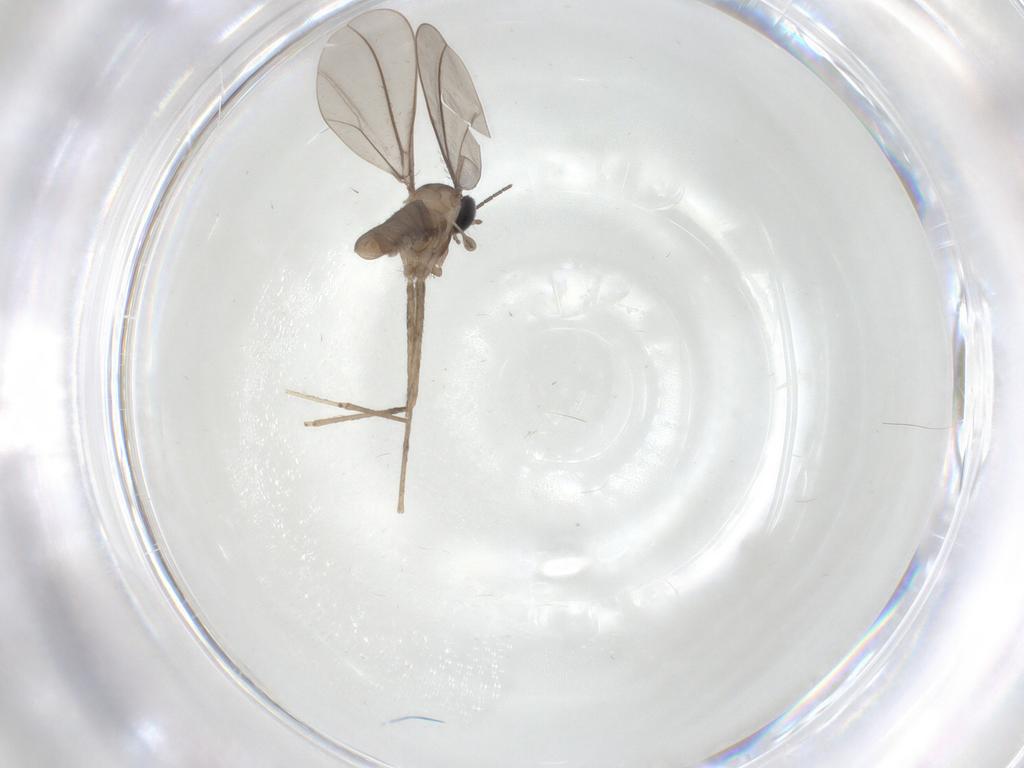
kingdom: Animalia
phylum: Arthropoda
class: Insecta
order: Diptera
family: Cecidomyiidae
